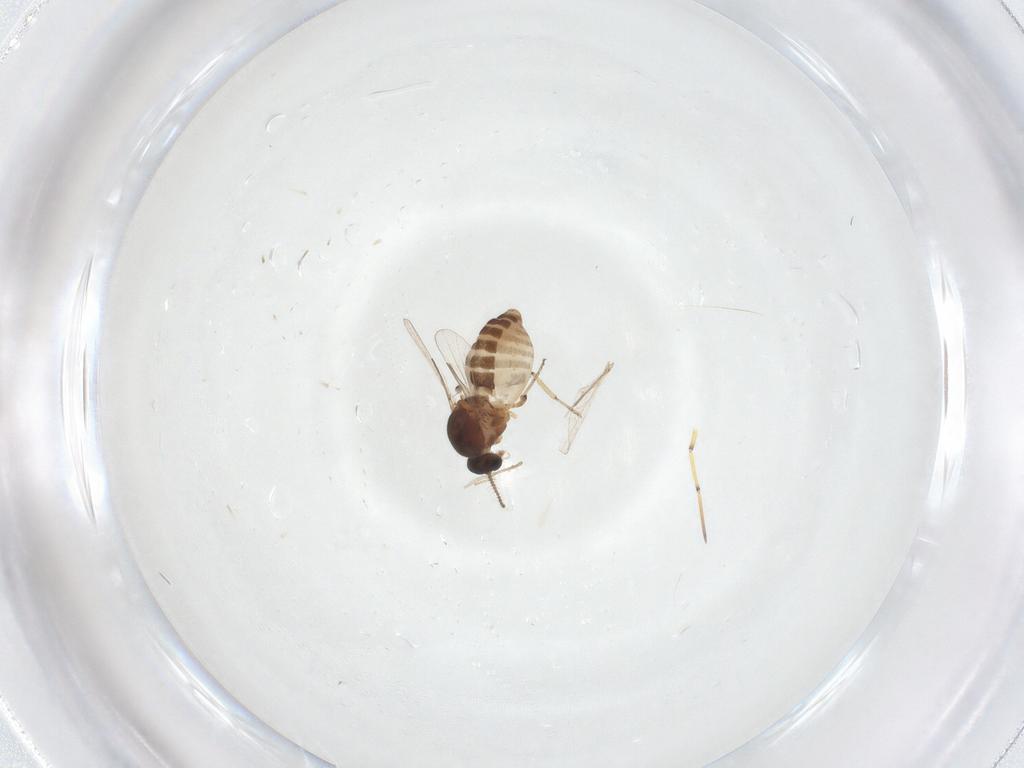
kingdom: Animalia
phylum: Arthropoda
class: Insecta
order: Diptera
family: Ceratopogonidae
